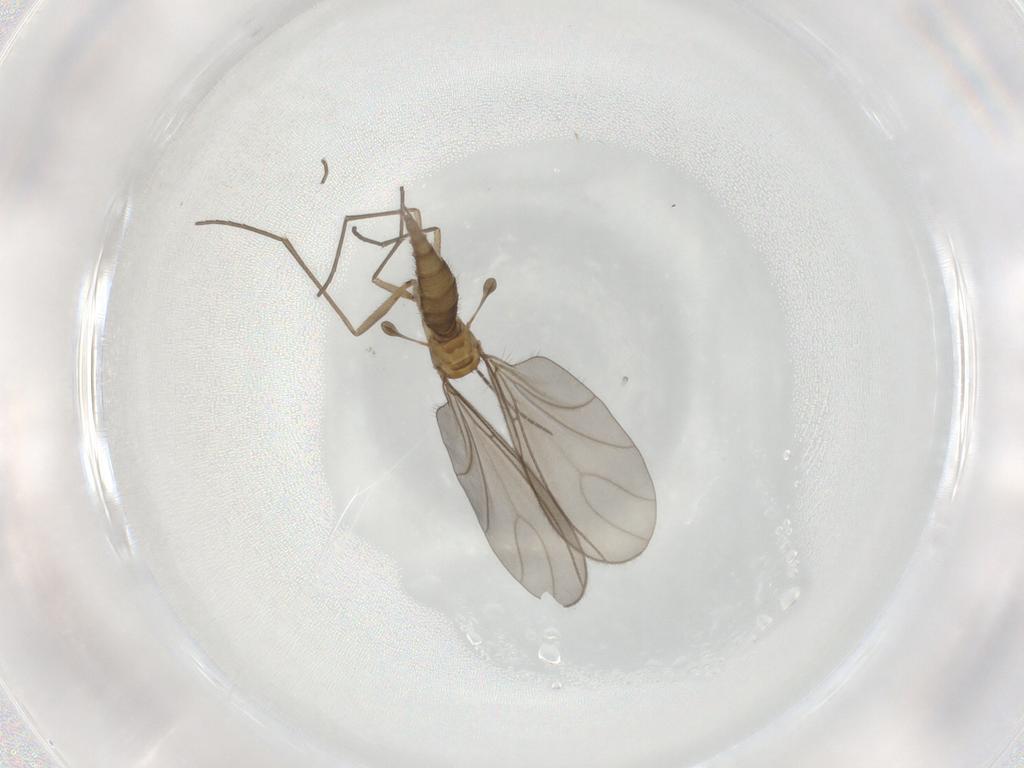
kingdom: Animalia
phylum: Arthropoda
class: Insecta
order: Diptera
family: Sciaridae
